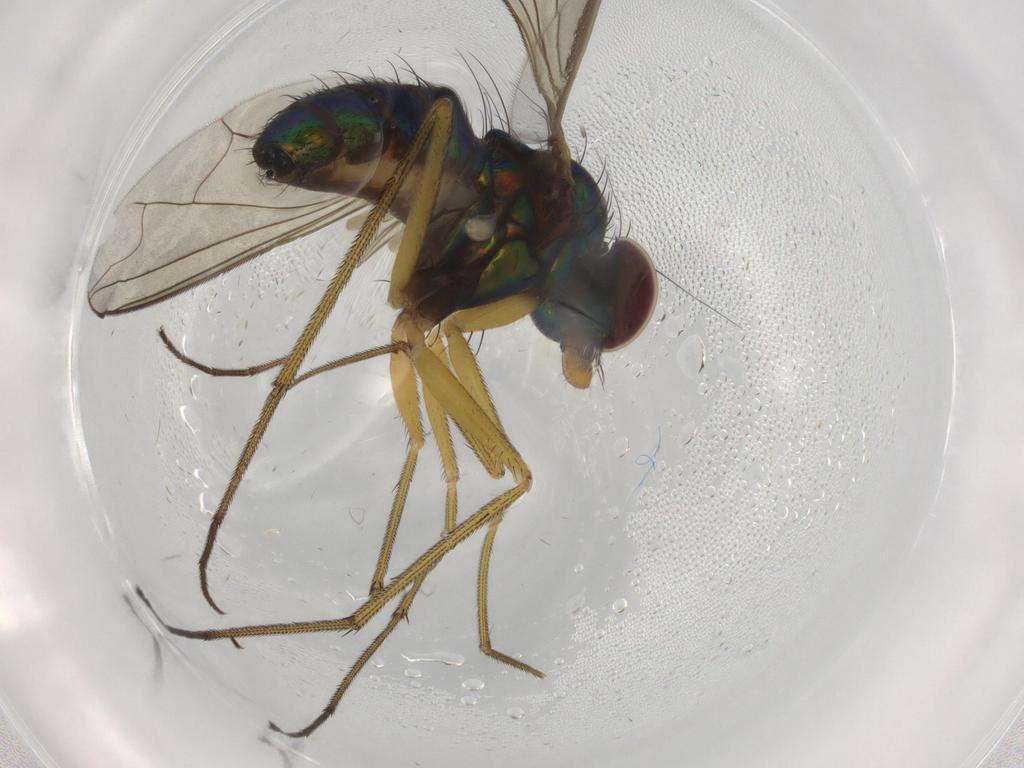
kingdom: Animalia
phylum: Arthropoda
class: Insecta
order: Diptera
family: Dolichopodidae
